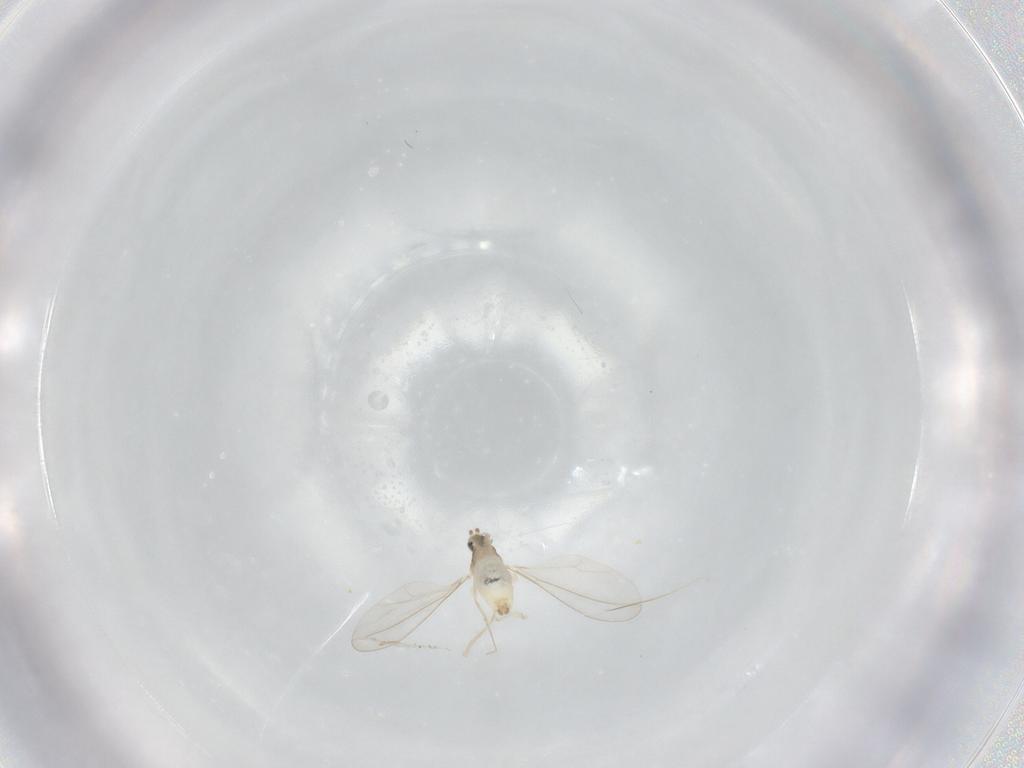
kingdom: Animalia
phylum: Arthropoda
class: Insecta
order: Diptera
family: Cecidomyiidae
